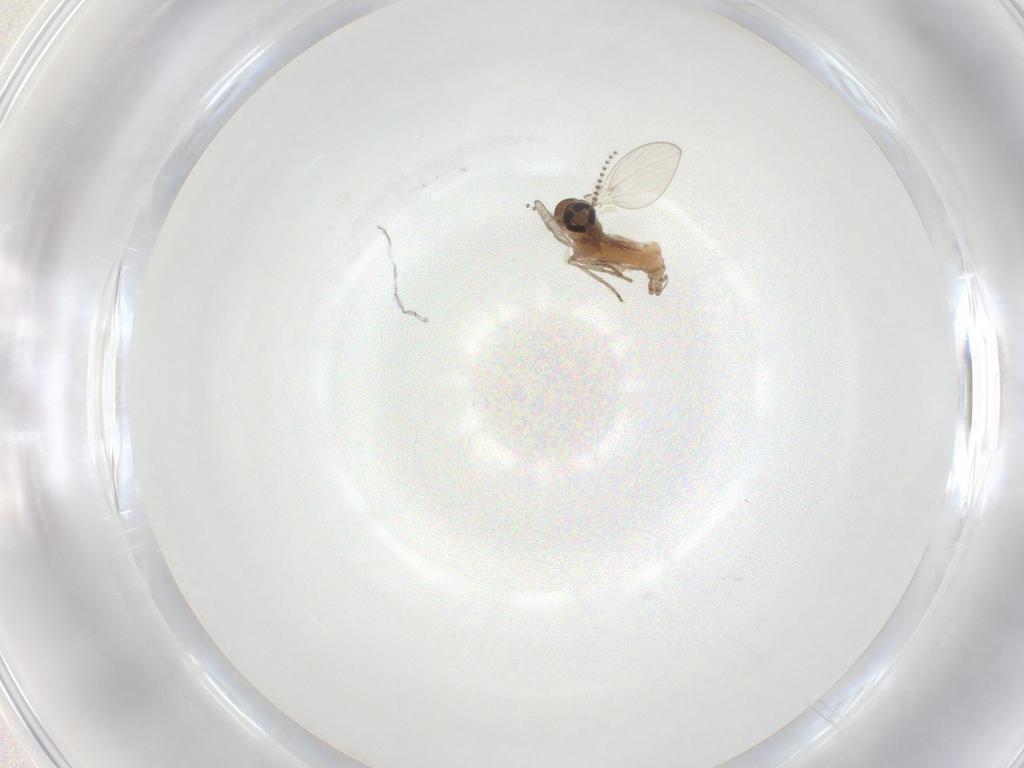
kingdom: Animalia
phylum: Arthropoda
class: Insecta
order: Diptera
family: Psychodidae
